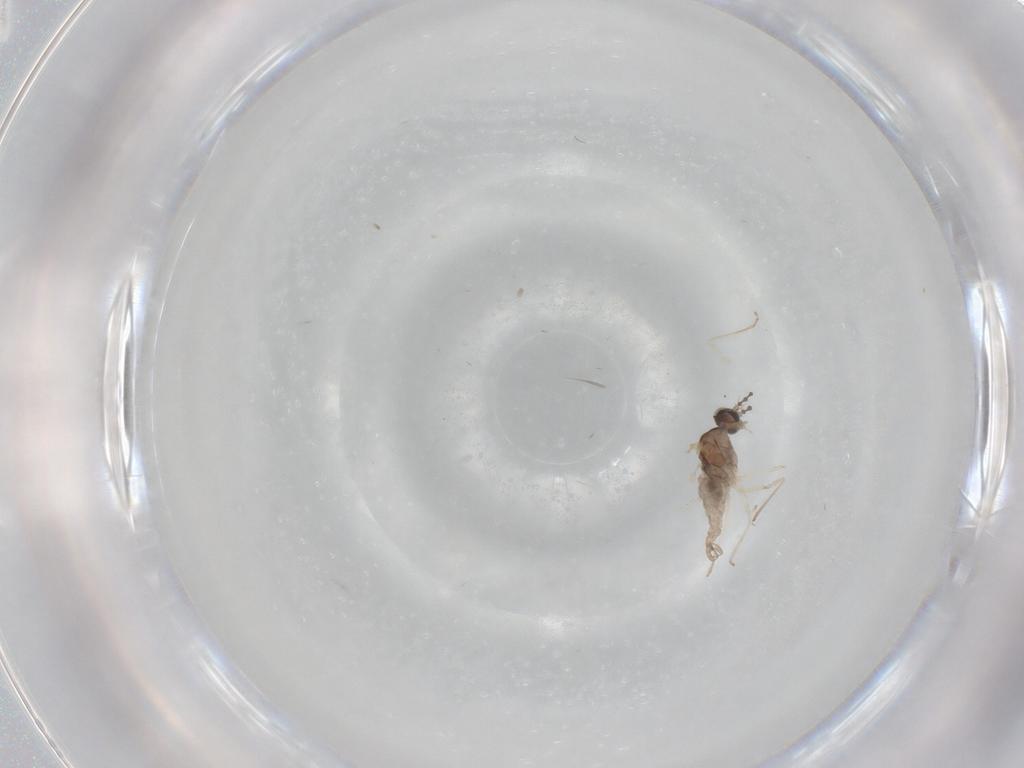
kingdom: Animalia
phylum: Arthropoda
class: Insecta
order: Diptera
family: Cecidomyiidae
